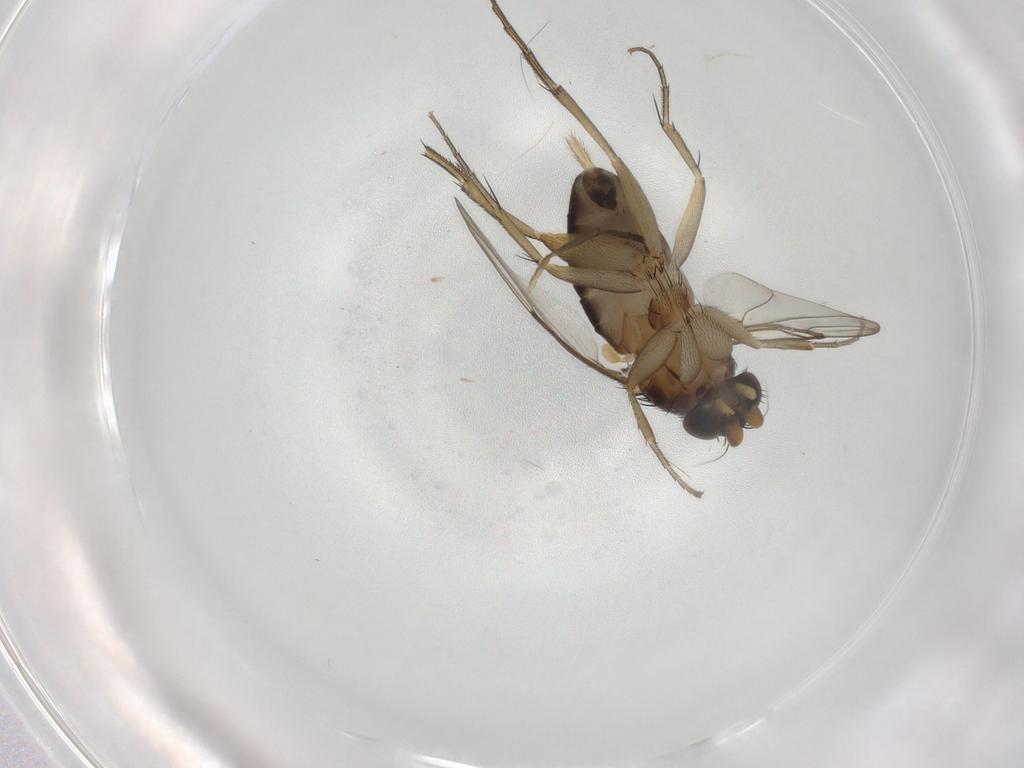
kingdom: Animalia
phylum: Arthropoda
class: Insecta
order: Diptera
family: Phoridae
